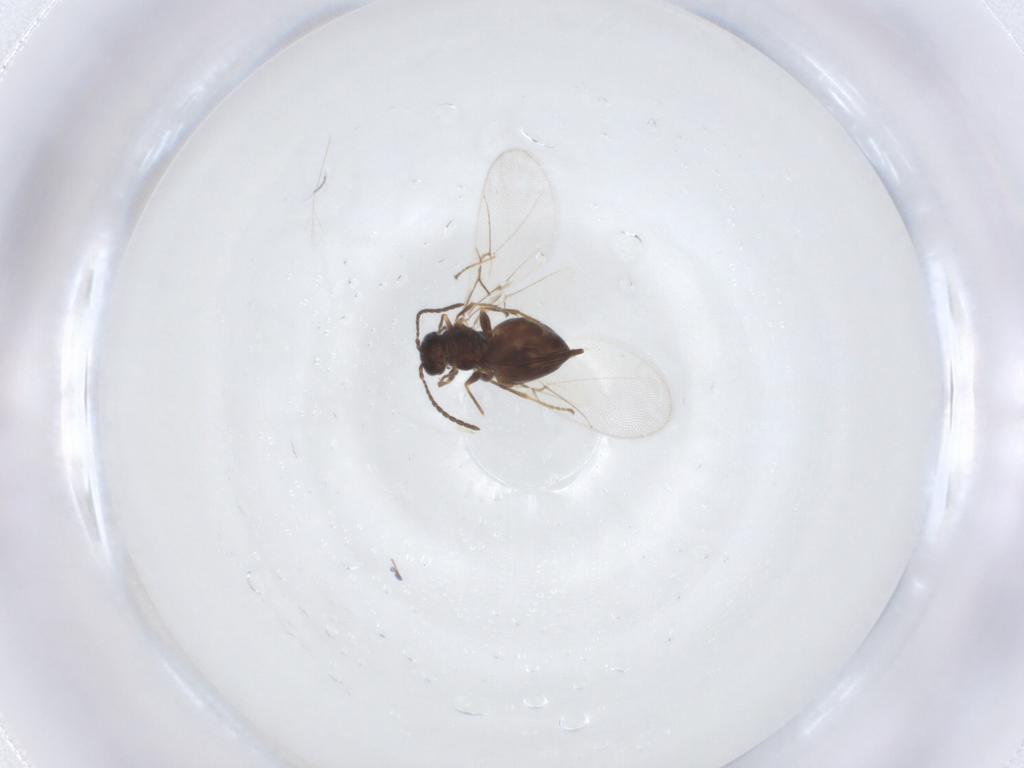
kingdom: Animalia
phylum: Arthropoda
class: Insecta
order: Hymenoptera
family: Cynipidae
